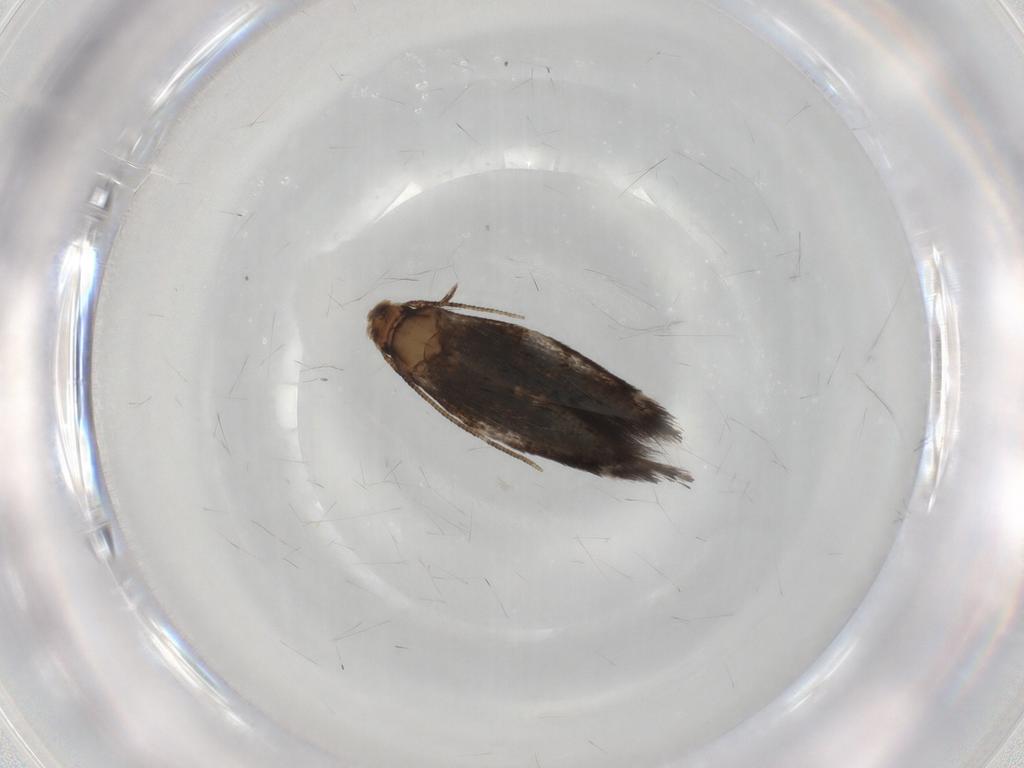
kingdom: Animalia
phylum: Arthropoda
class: Insecta
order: Lepidoptera
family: Gelechiidae
